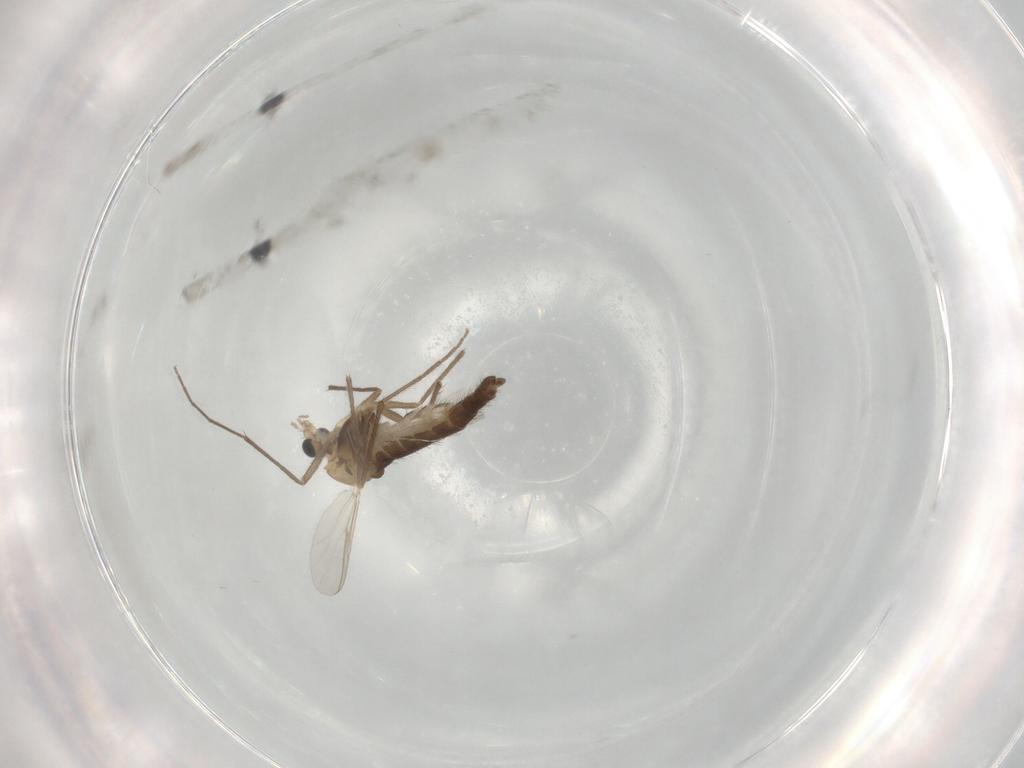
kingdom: Animalia
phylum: Arthropoda
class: Insecta
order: Diptera
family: Chironomidae
